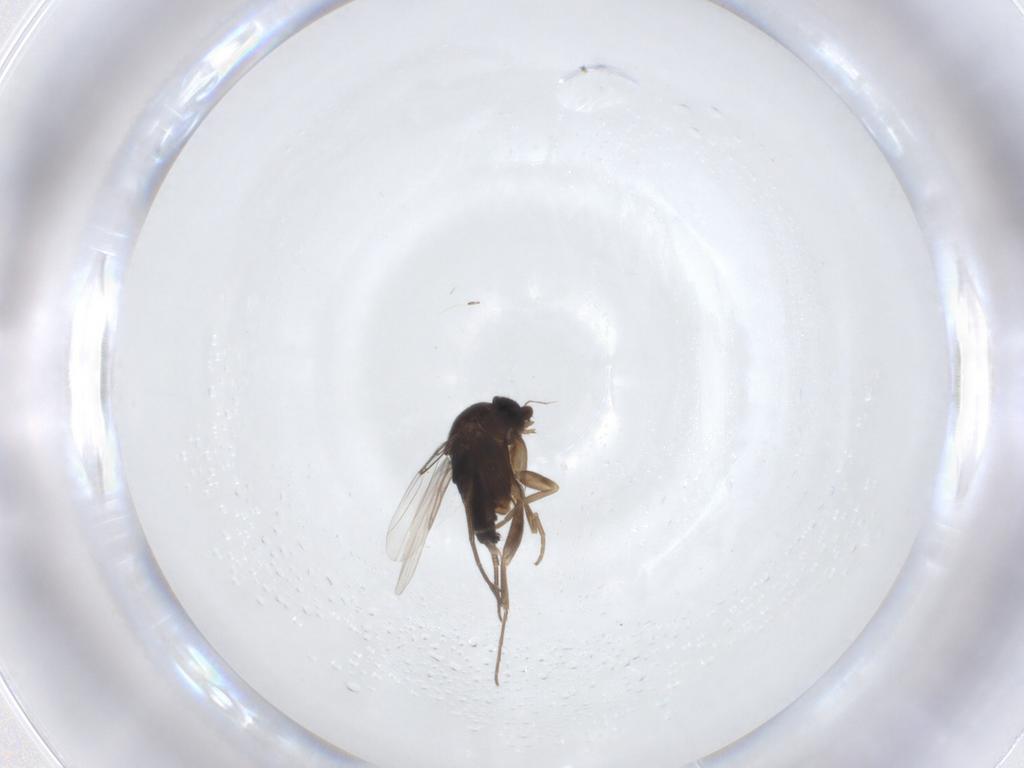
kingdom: Animalia
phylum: Arthropoda
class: Insecta
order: Diptera
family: Phoridae
